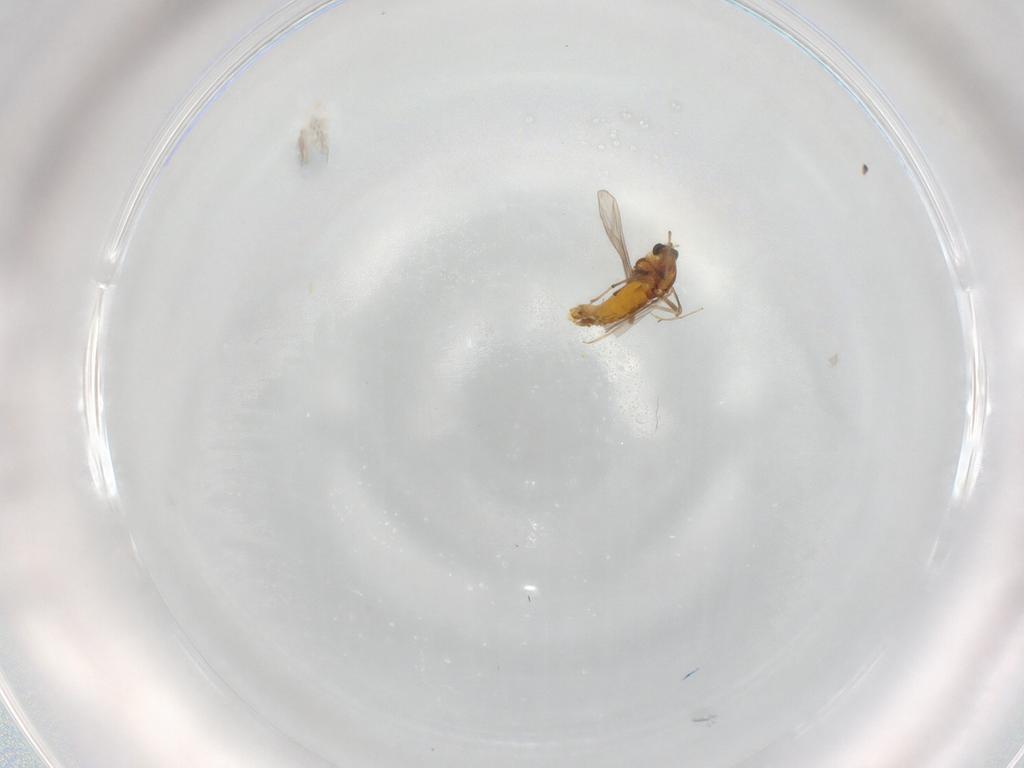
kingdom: Animalia
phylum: Arthropoda
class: Insecta
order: Diptera
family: Chironomidae
